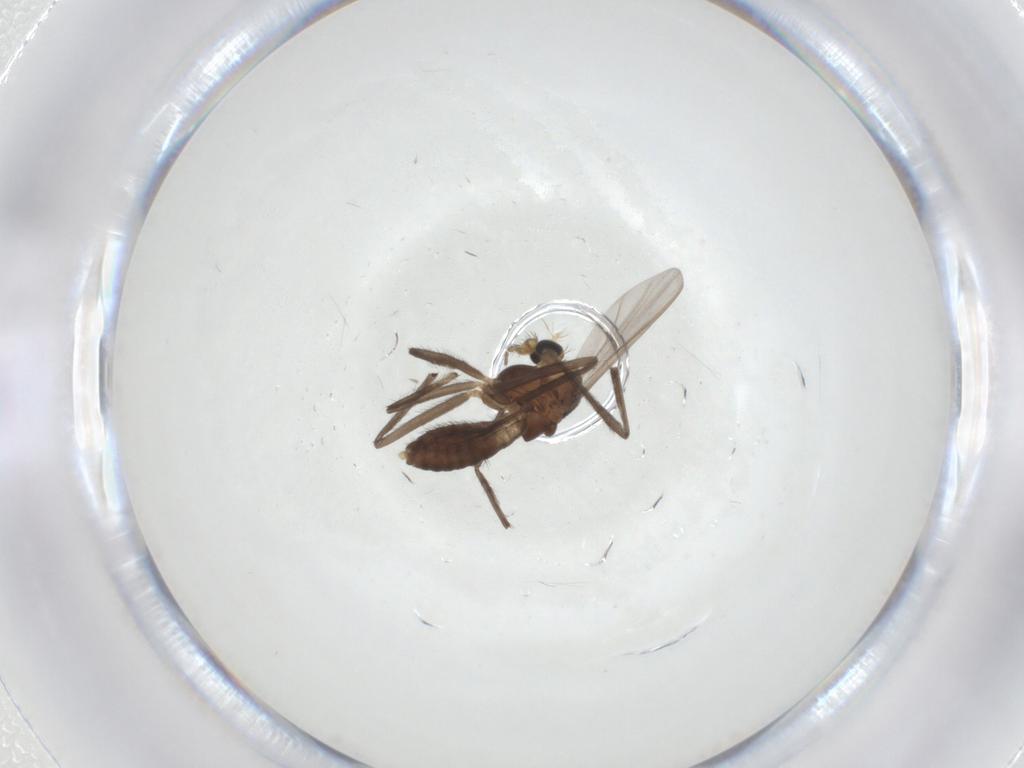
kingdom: Animalia
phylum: Arthropoda
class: Insecta
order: Diptera
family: Chironomidae
